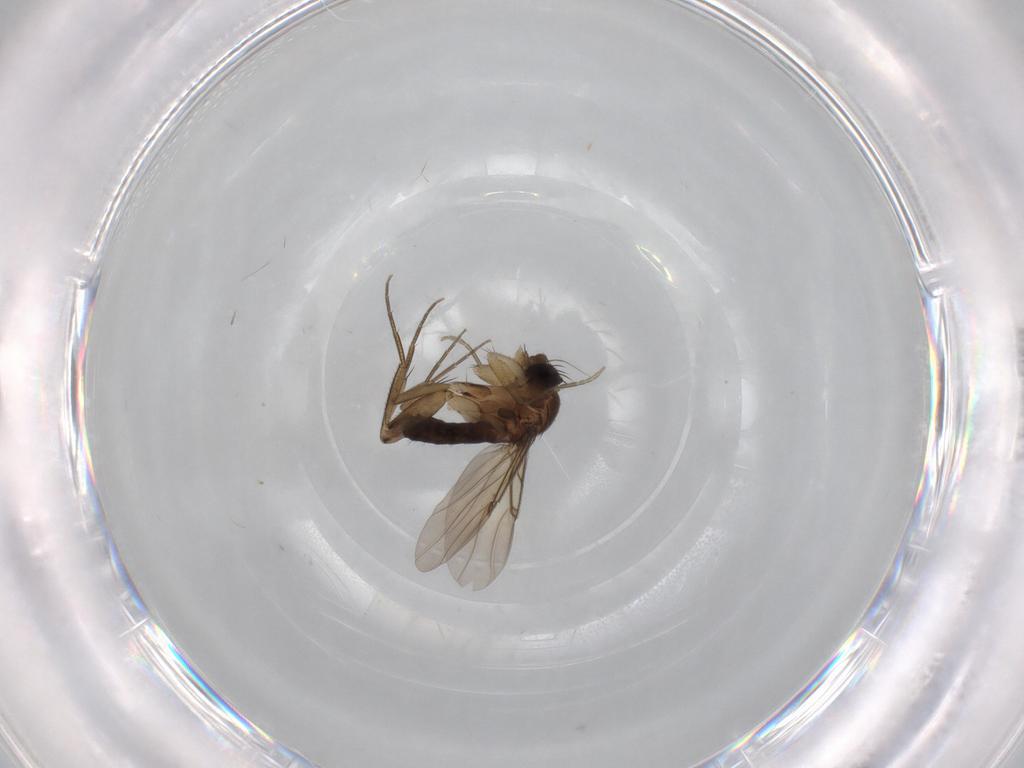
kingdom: Animalia
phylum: Arthropoda
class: Insecta
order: Diptera
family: Phoridae
